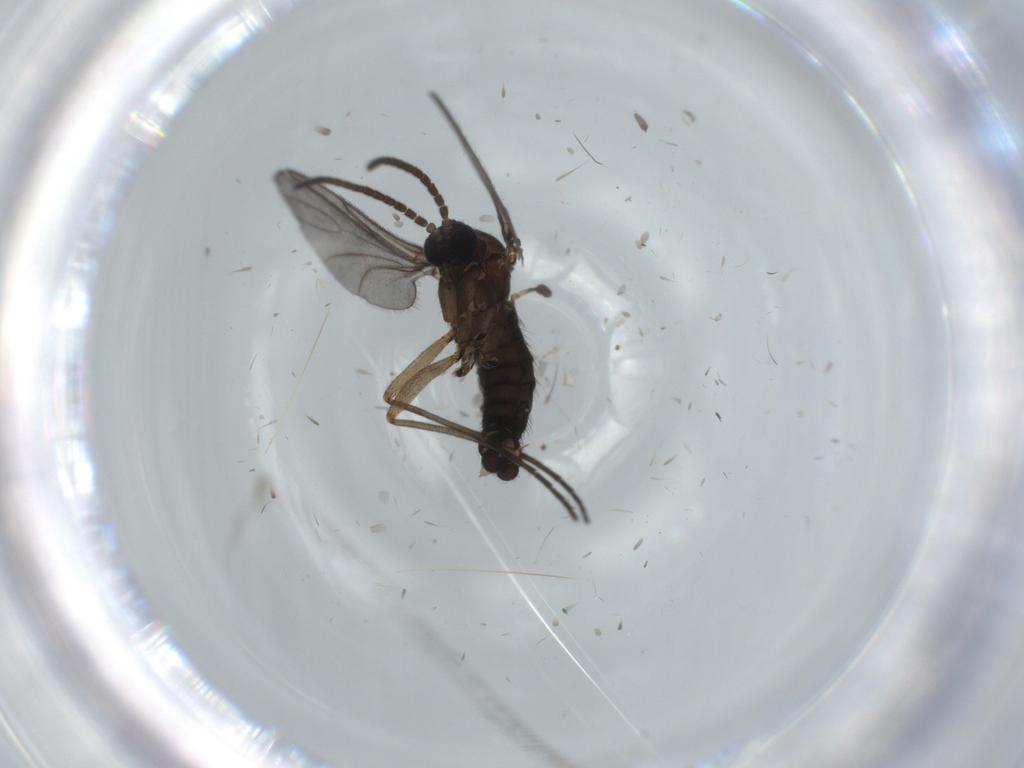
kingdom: Animalia
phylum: Arthropoda
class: Insecta
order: Diptera
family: Sciaridae
